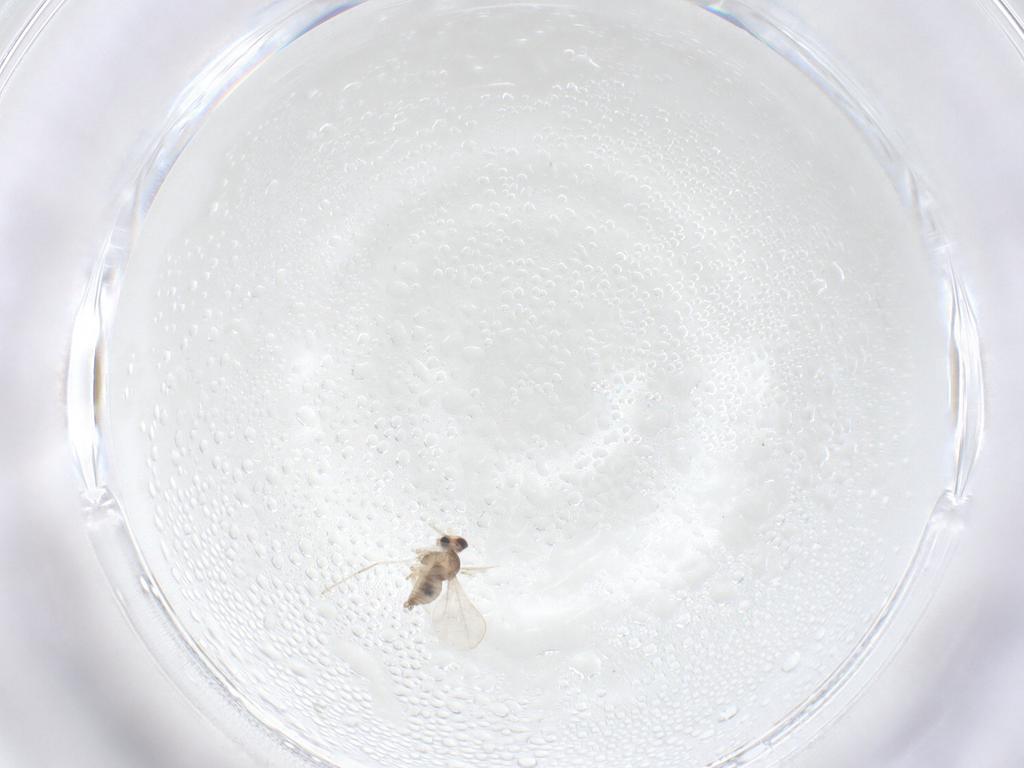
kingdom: Animalia
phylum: Arthropoda
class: Insecta
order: Diptera
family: Cecidomyiidae
